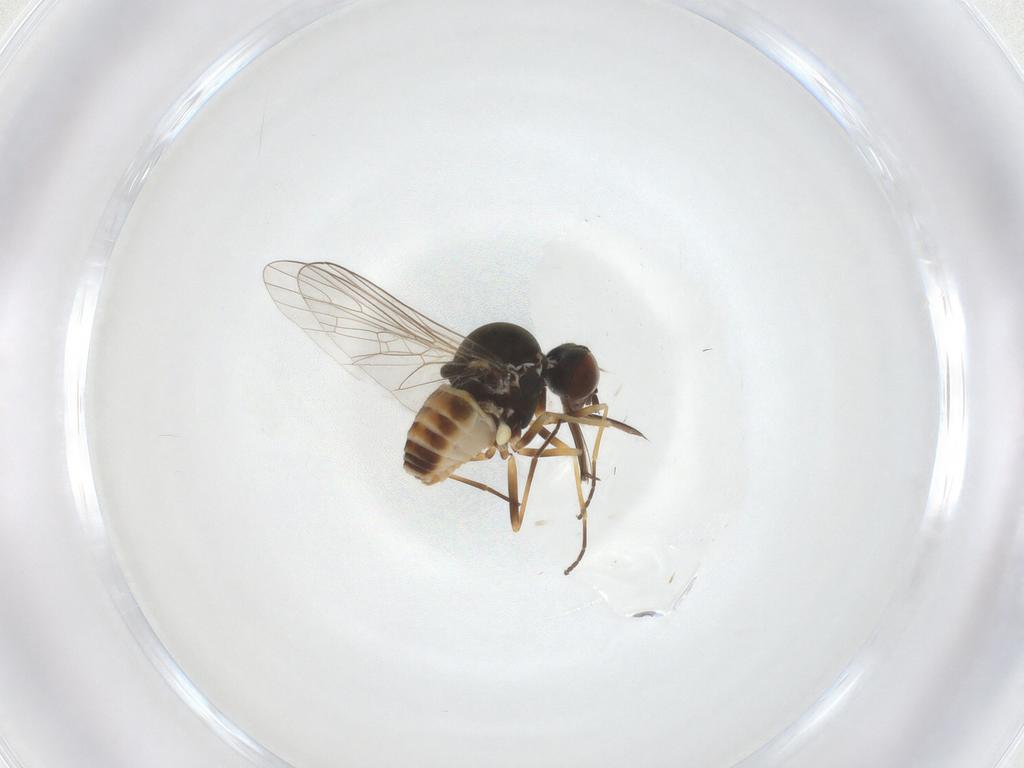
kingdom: Animalia
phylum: Arthropoda
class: Insecta
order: Diptera
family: Bombyliidae
